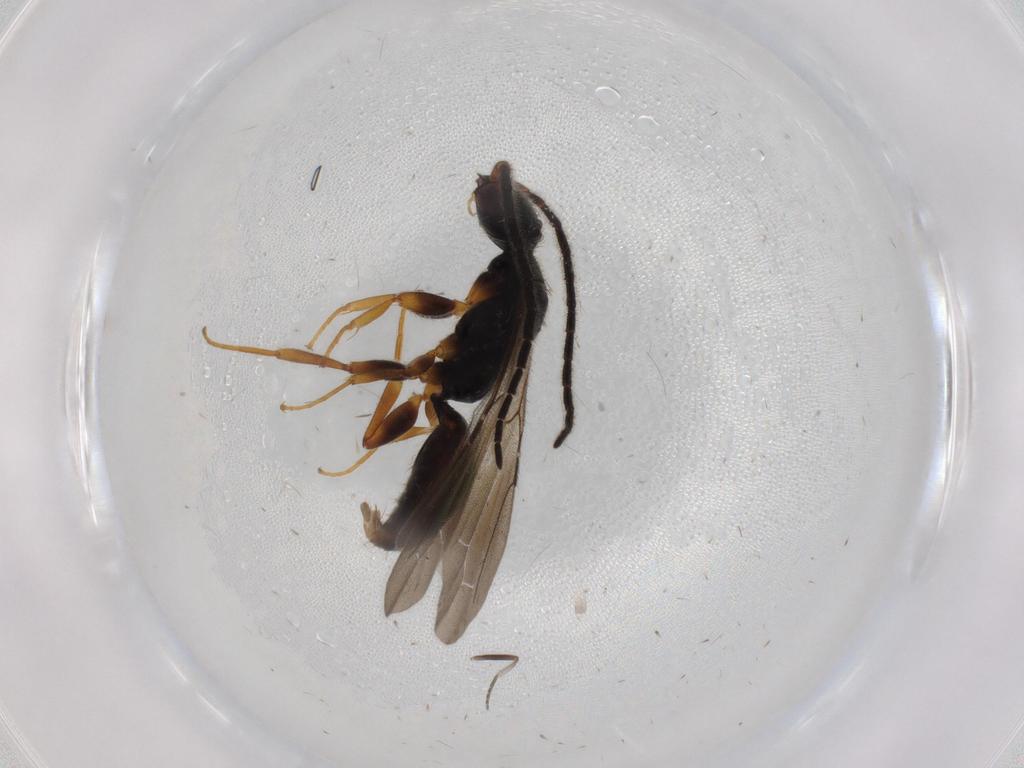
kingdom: Animalia
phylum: Arthropoda
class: Insecta
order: Hymenoptera
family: Bethylidae
